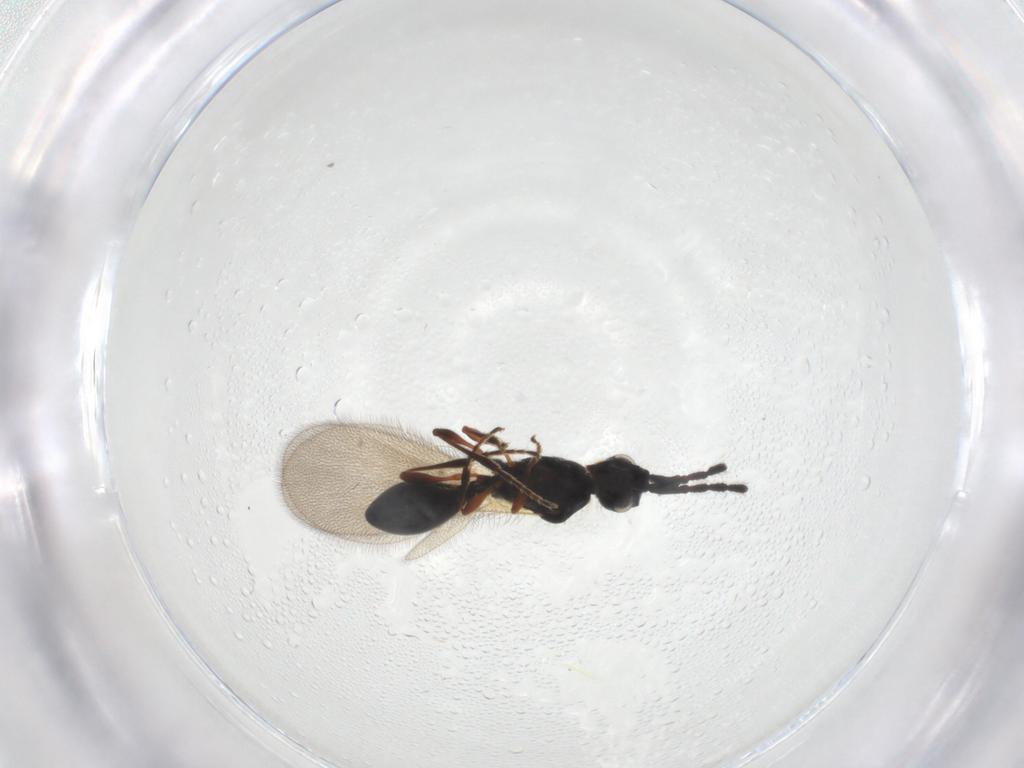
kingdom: Animalia
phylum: Arthropoda
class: Insecta
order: Hymenoptera
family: Diapriidae
